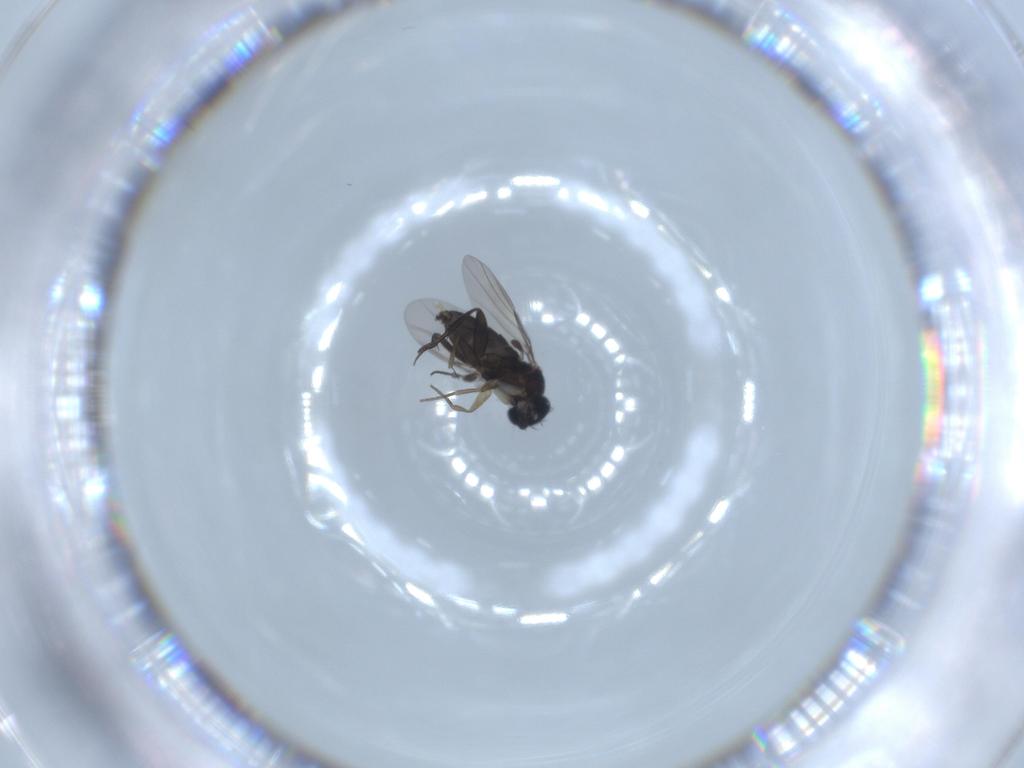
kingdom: Animalia
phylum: Arthropoda
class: Insecta
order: Diptera
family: Phoridae
